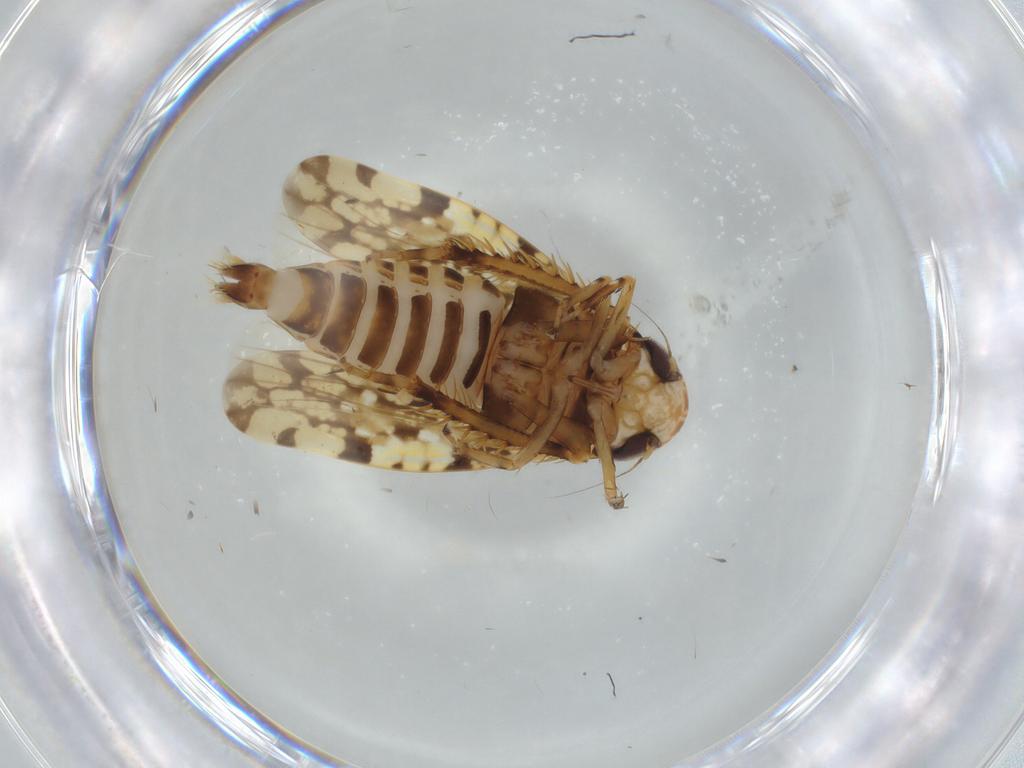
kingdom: Animalia
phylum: Arthropoda
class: Insecta
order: Hemiptera
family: Cicadellidae
